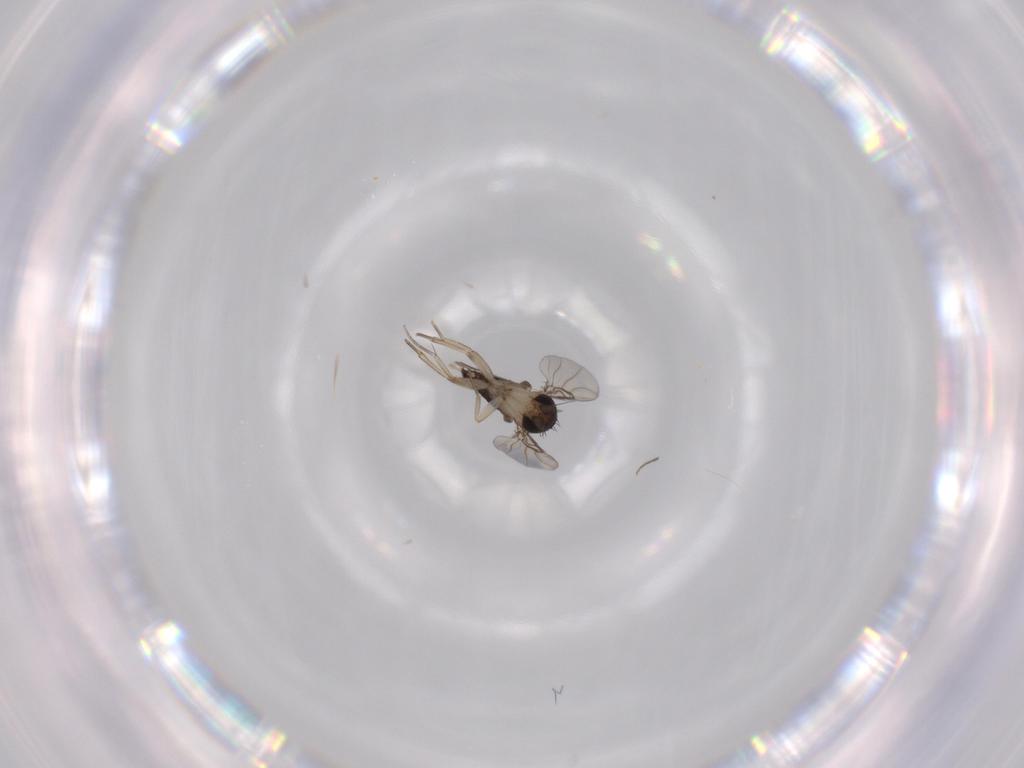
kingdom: Animalia
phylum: Arthropoda
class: Insecta
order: Diptera
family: Phoridae
